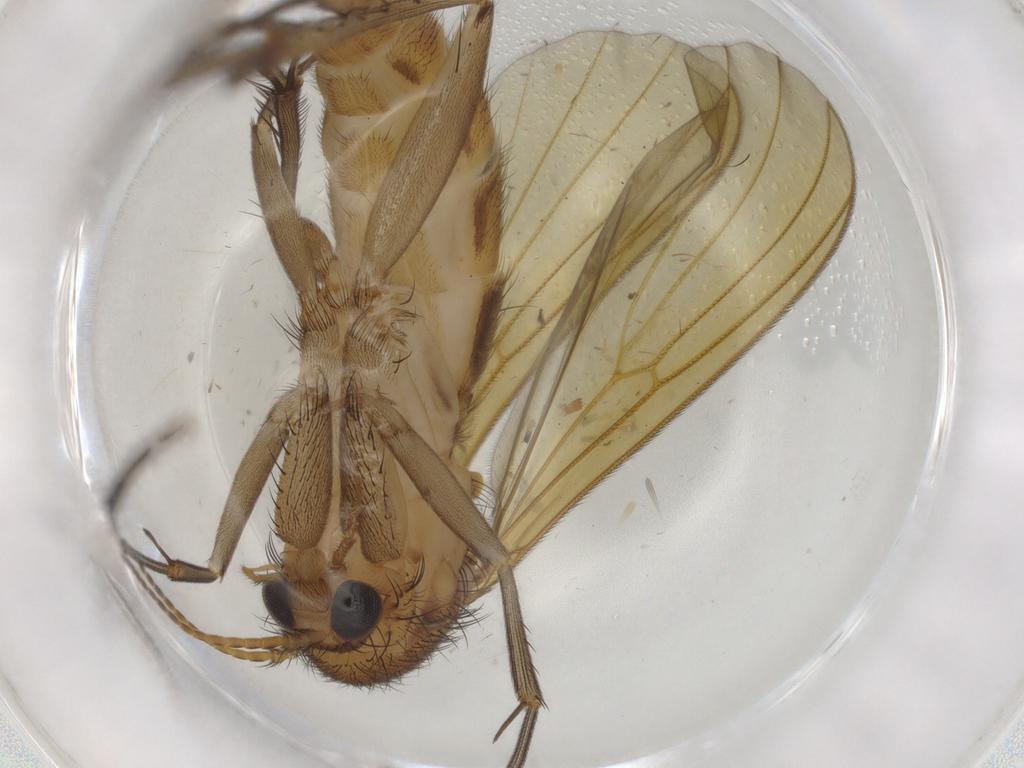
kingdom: Animalia
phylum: Arthropoda
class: Insecta
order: Diptera
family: Mycetophilidae
